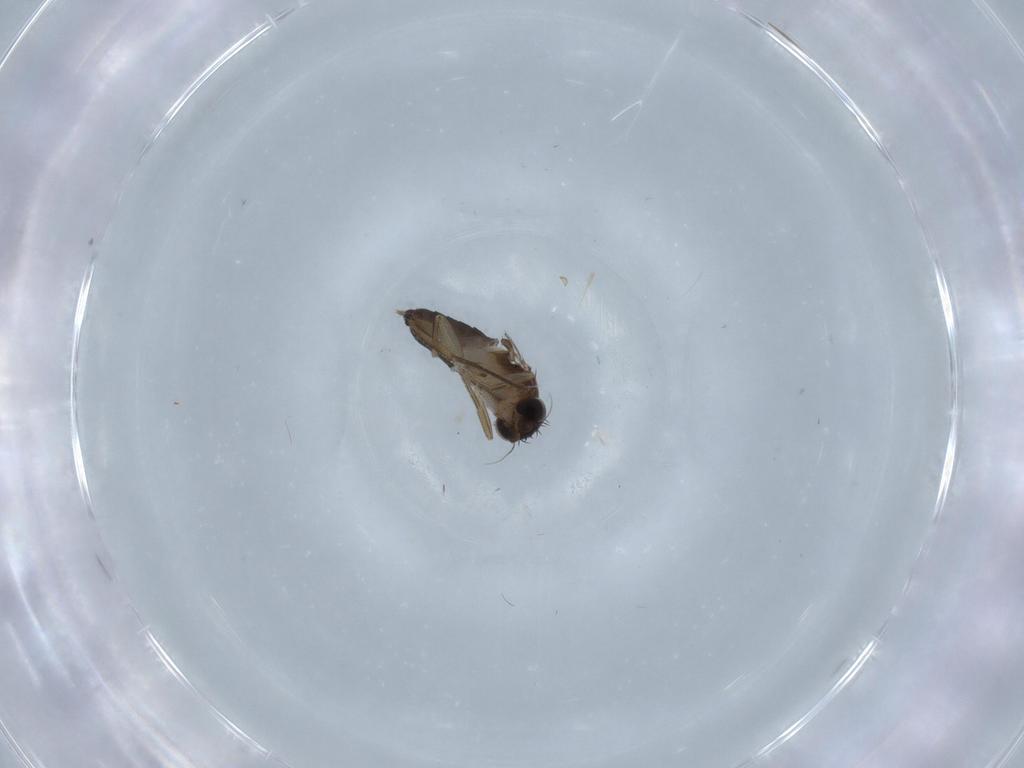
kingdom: Animalia
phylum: Arthropoda
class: Insecta
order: Diptera
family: Phoridae
